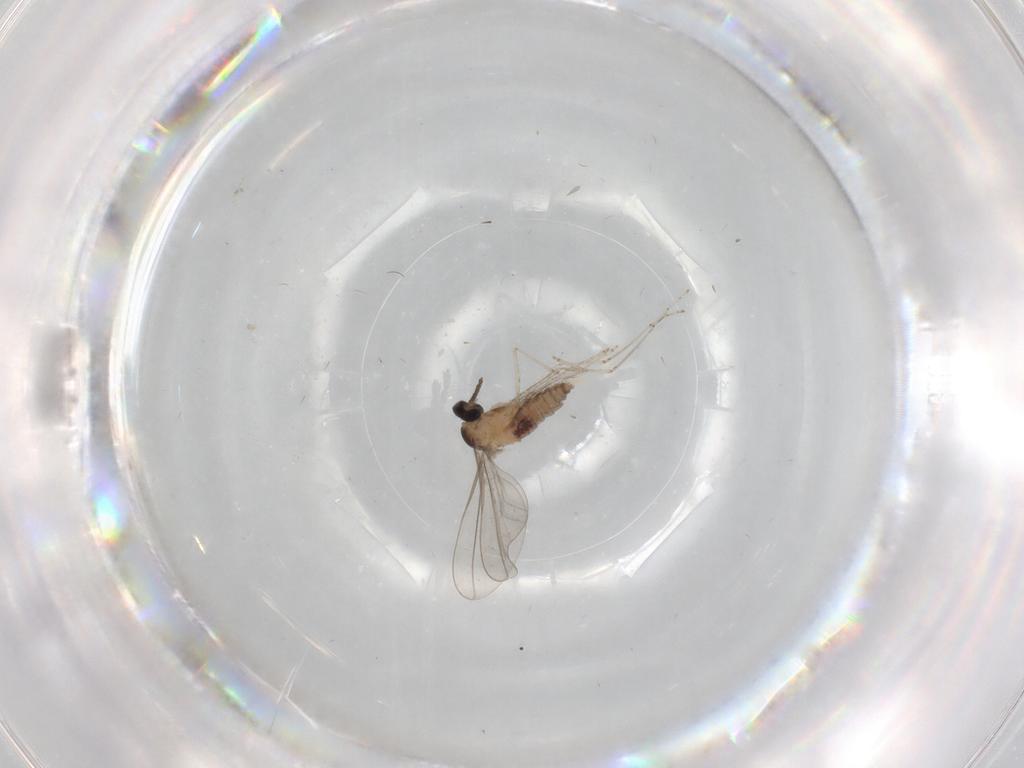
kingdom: Animalia
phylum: Arthropoda
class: Insecta
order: Diptera
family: Cecidomyiidae
